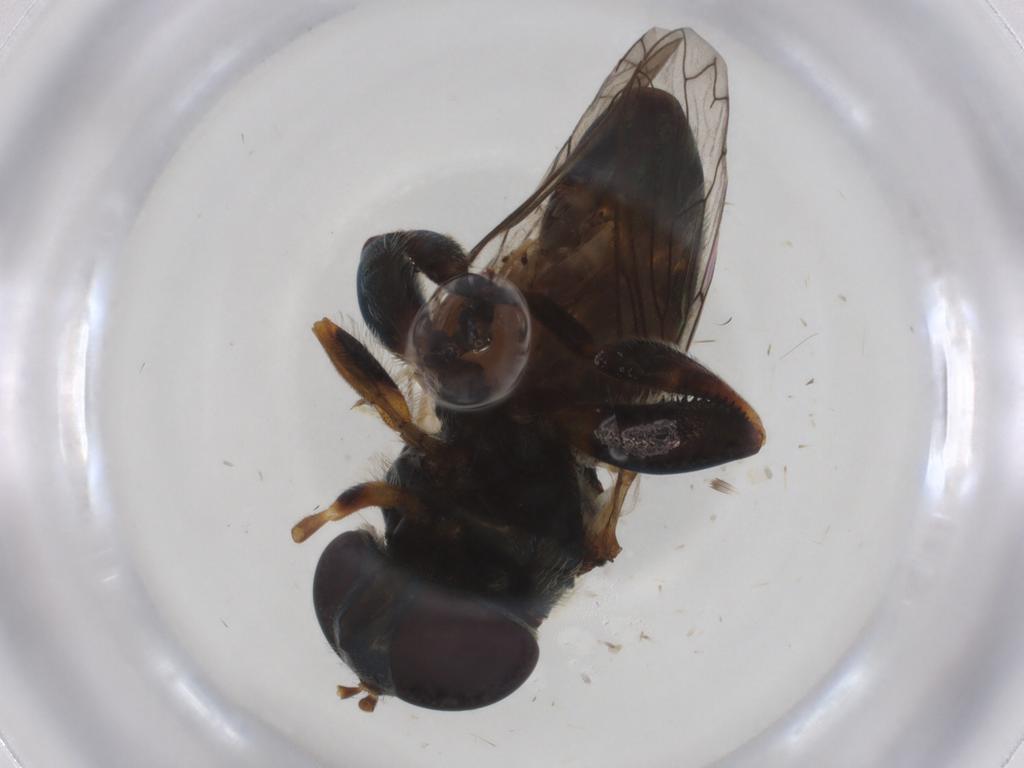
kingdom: Animalia
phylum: Arthropoda
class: Insecta
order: Diptera
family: Syrphidae
